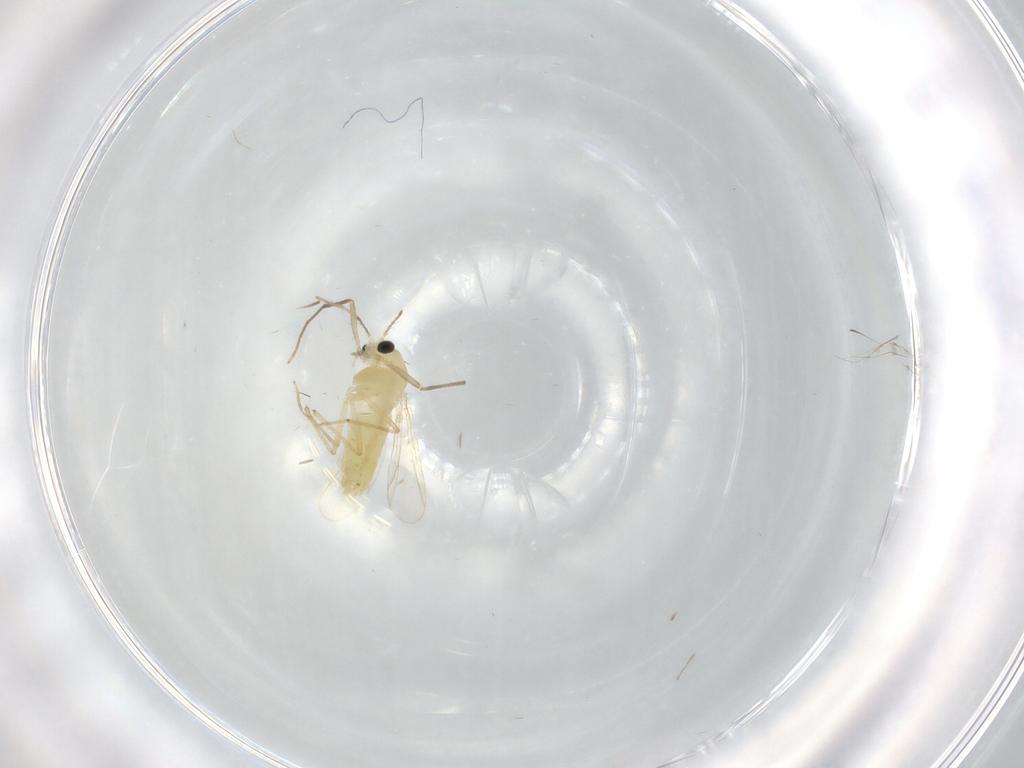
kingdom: Animalia
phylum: Arthropoda
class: Insecta
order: Diptera
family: Chironomidae
